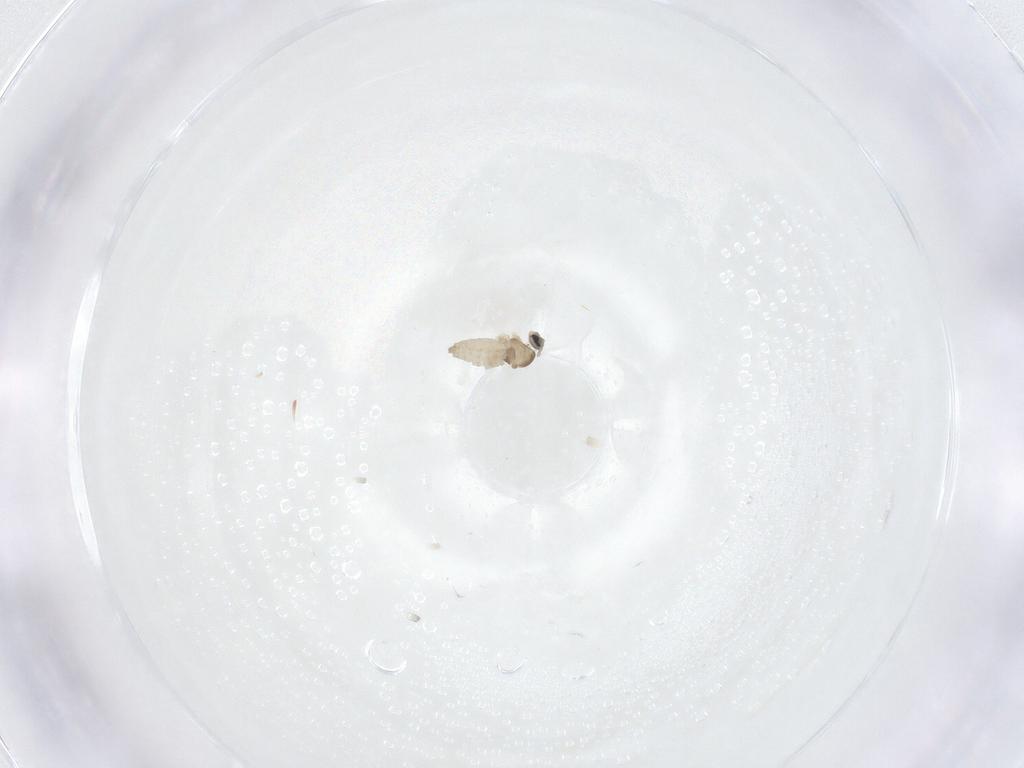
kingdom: Animalia
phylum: Arthropoda
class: Insecta
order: Diptera
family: Cecidomyiidae
